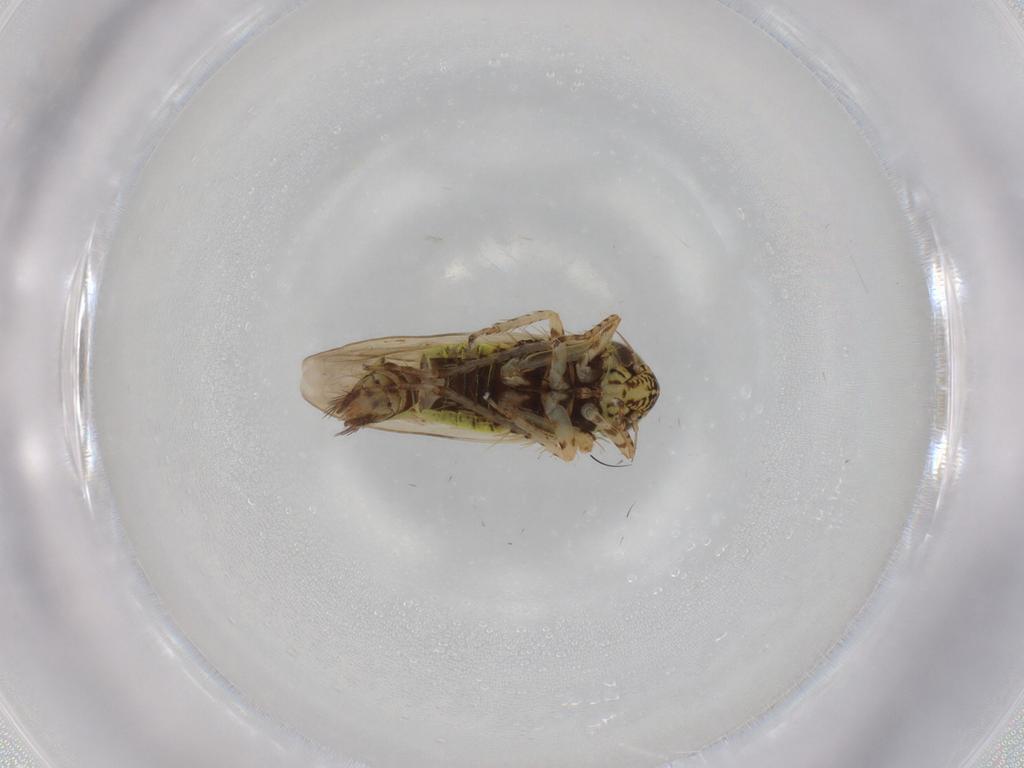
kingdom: Animalia
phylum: Arthropoda
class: Insecta
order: Hemiptera
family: Cicadellidae
